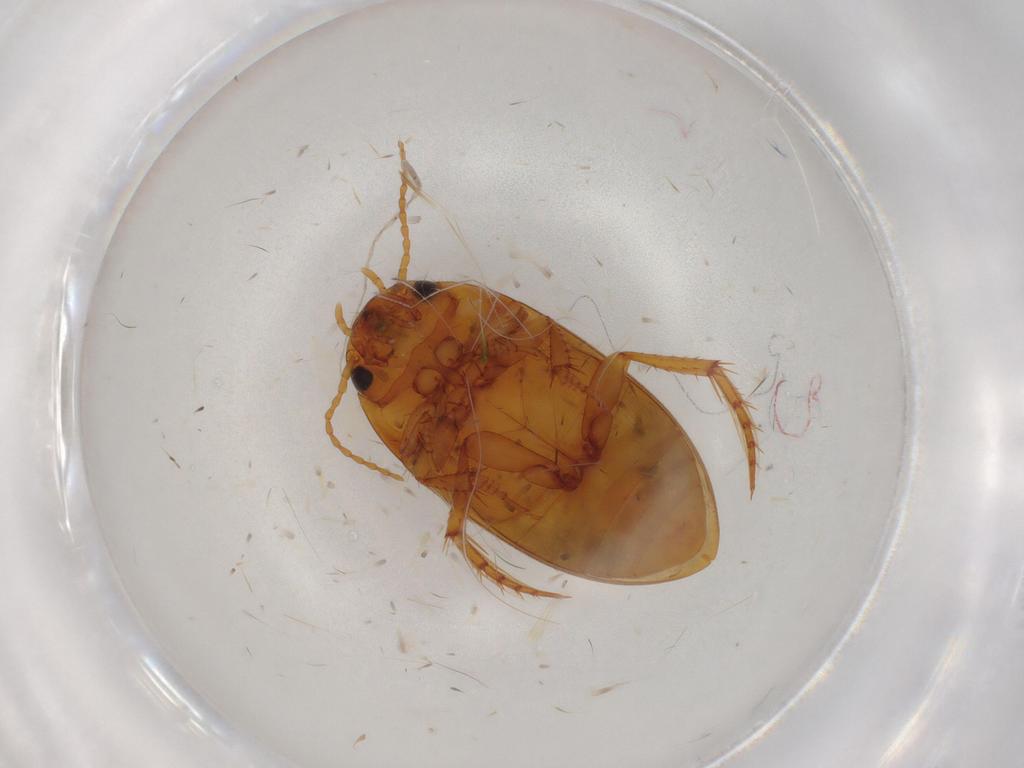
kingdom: Animalia
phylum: Arthropoda
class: Insecta
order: Coleoptera
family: Dytiscidae
